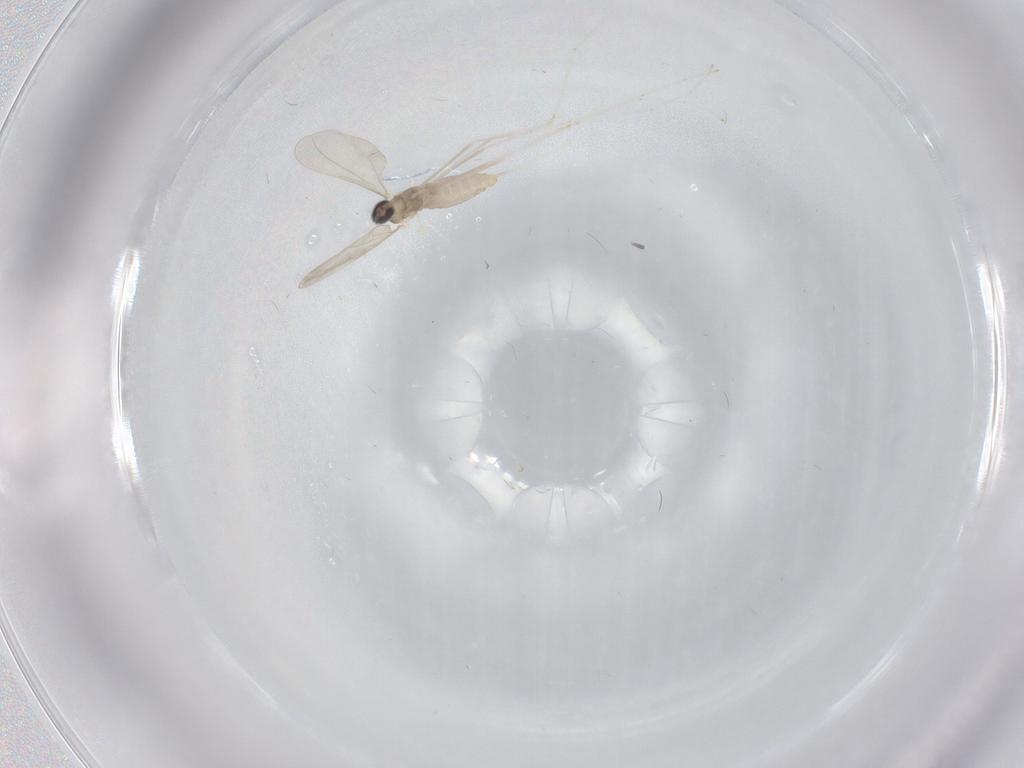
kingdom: Animalia
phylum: Arthropoda
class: Insecta
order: Diptera
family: Cecidomyiidae
